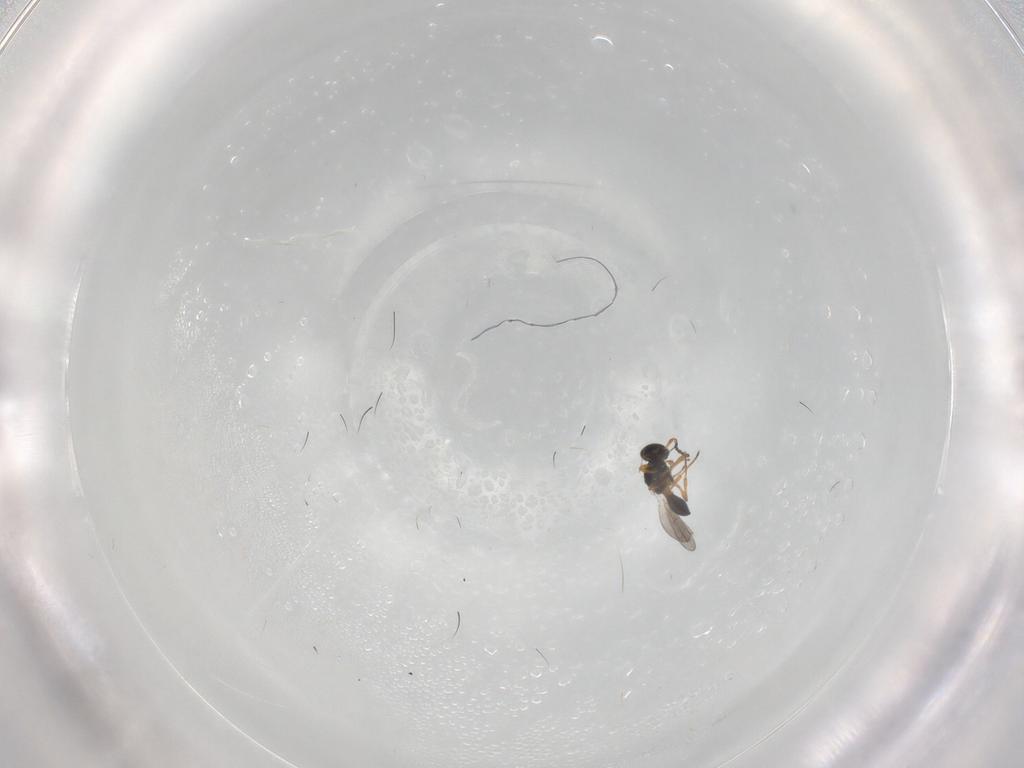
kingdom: Animalia
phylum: Arthropoda
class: Insecta
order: Hymenoptera
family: Platygastridae
